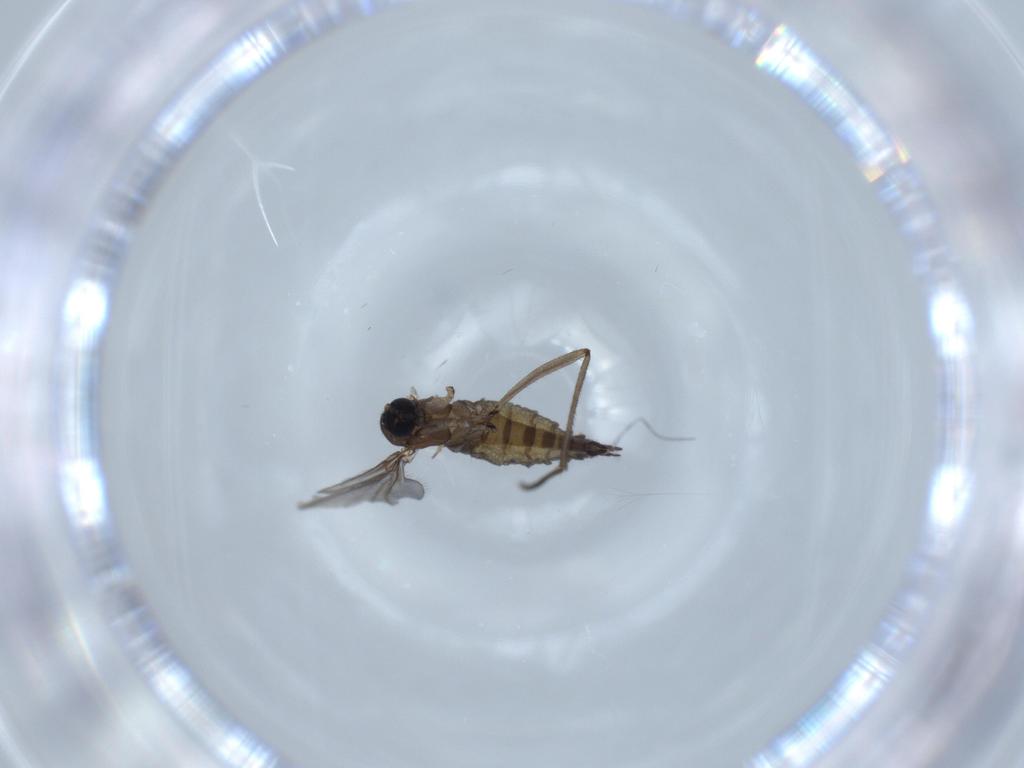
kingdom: Animalia
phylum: Arthropoda
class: Insecta
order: Diptera
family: Sciaridae
